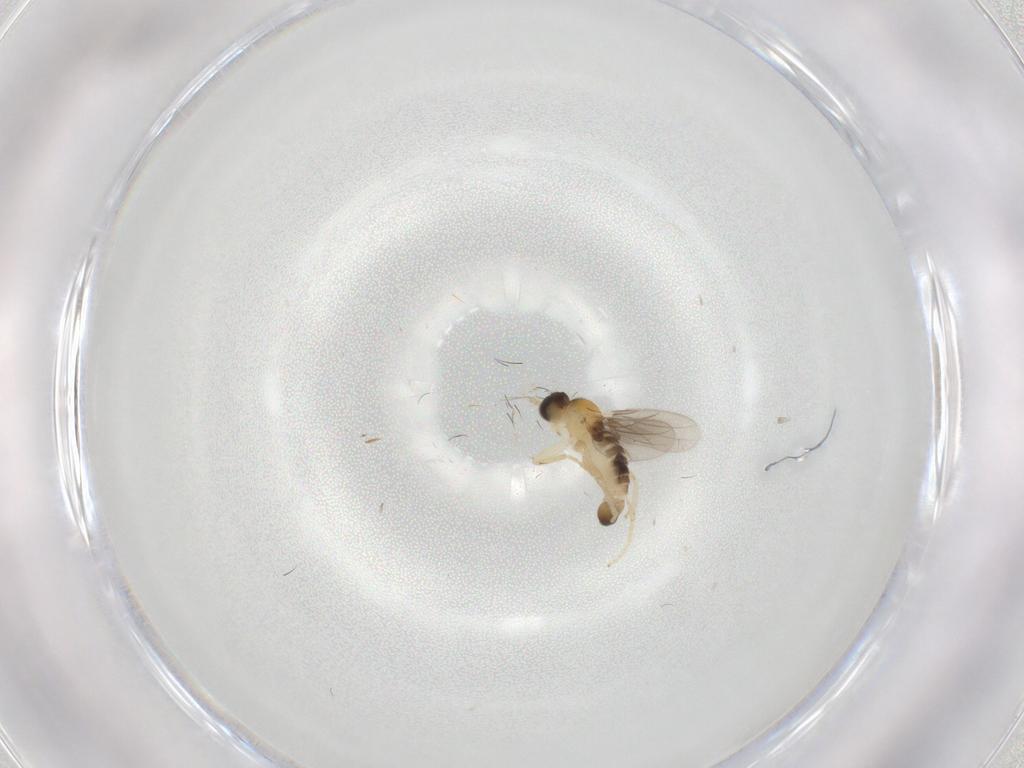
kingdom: Animalia
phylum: Arthropoda
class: Insecta
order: Diptera
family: Hybotidae
